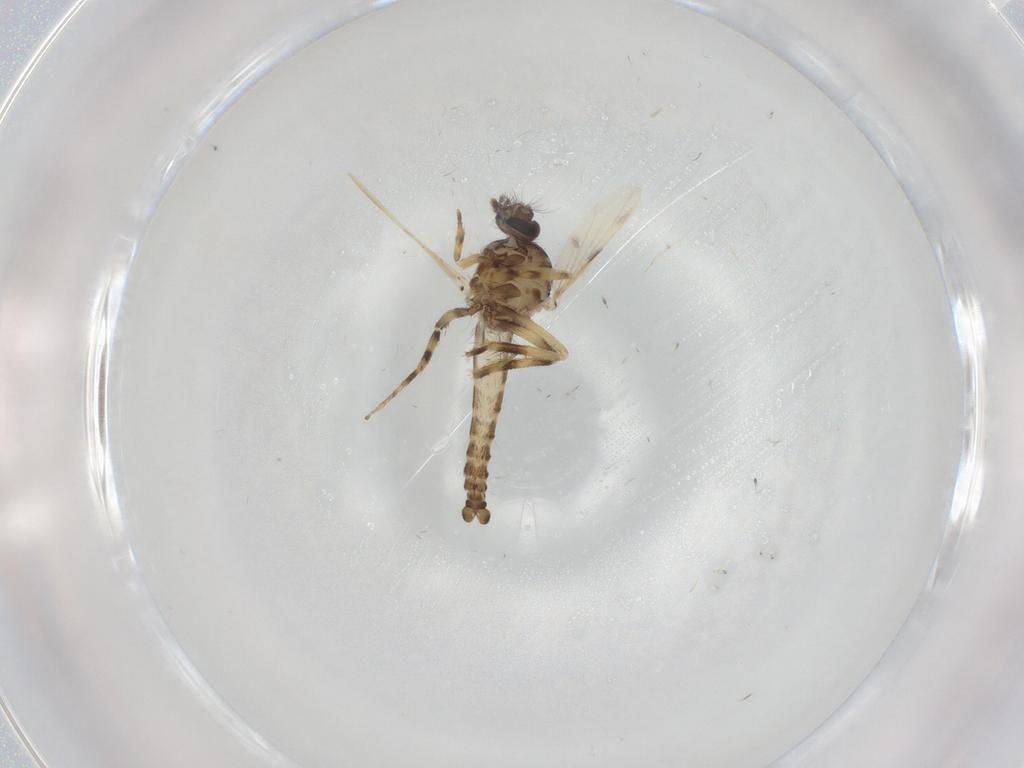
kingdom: Animalia
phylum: Arthropoda
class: Insecta
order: Diptera
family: Ceratopogonidae
